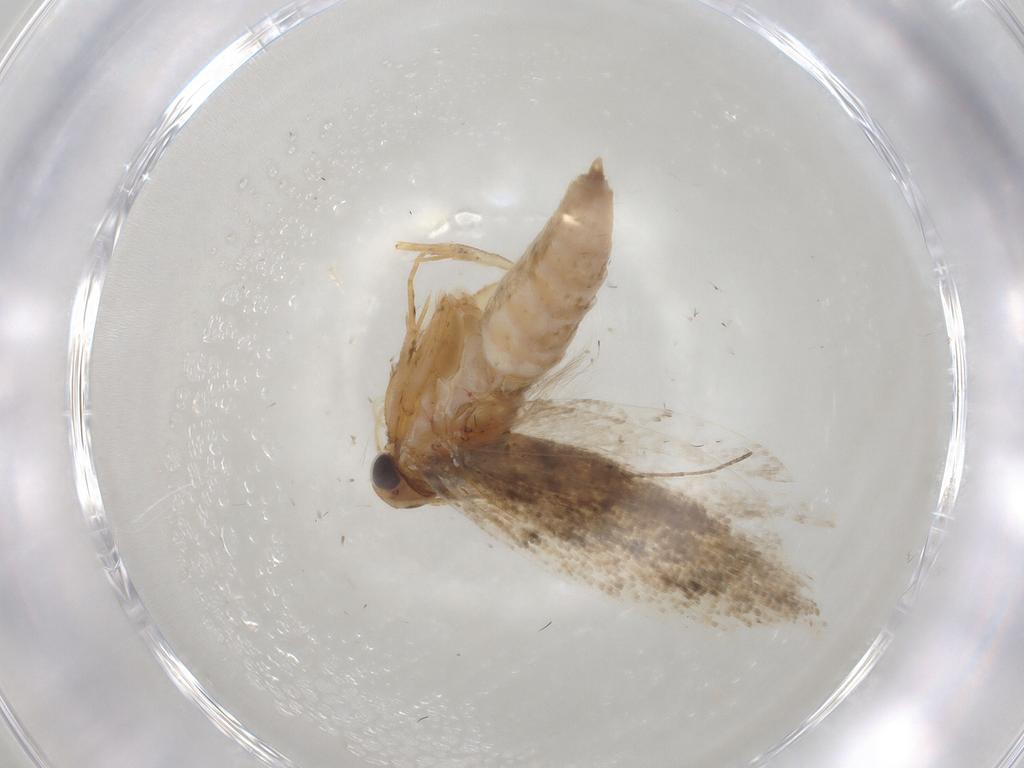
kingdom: Animalia
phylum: Arthropoda
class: Insecta
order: Lepidoptera
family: Gelechiidae
